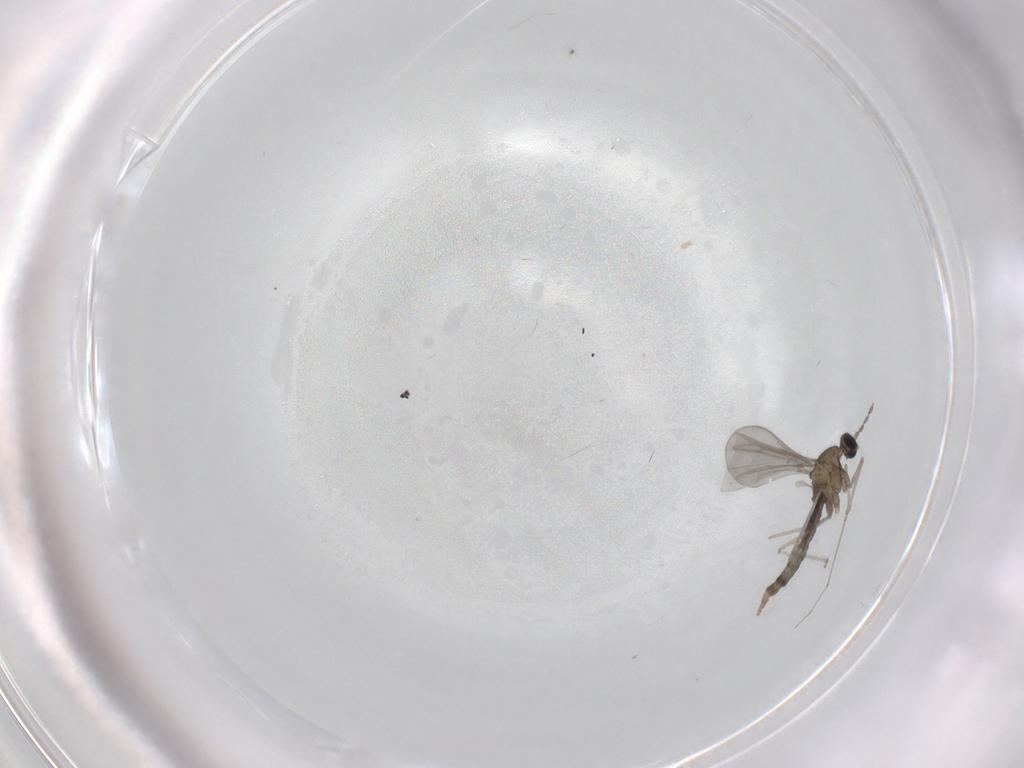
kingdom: Animalia
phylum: Arthropoda
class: Insecta
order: Diptera
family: Cecidomyiidae
